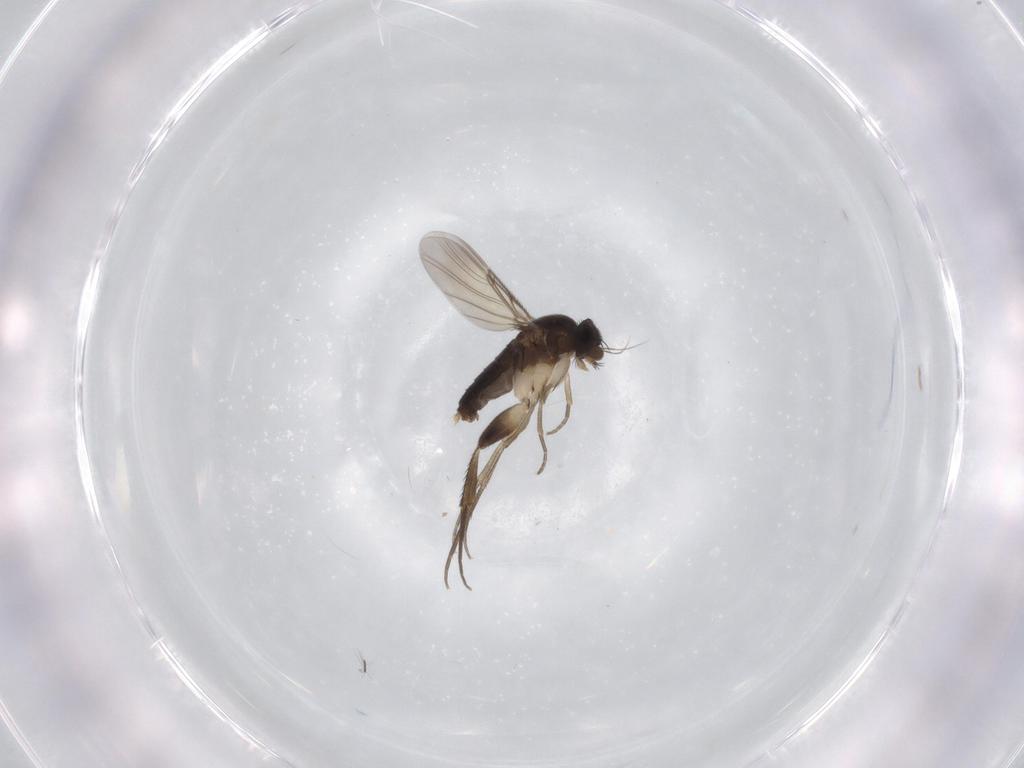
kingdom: Animalia
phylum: Arthropoda
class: Insecta
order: Diptera
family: Phoridae
